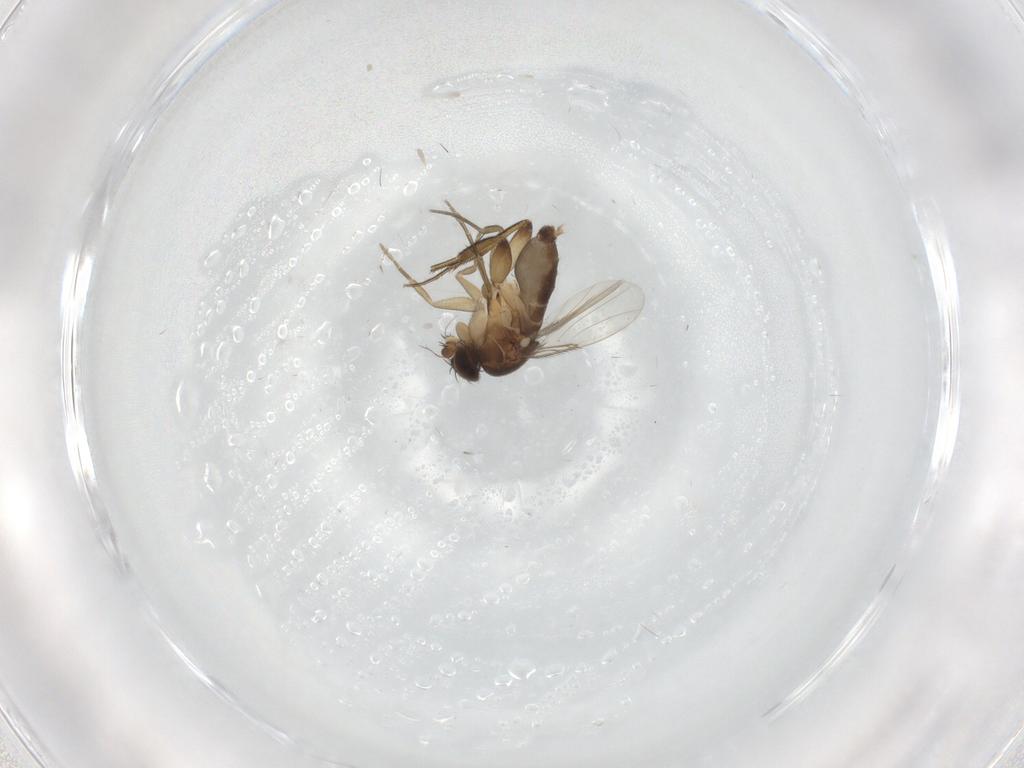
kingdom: Animalia
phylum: Arthropoda
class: Insecta
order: Diptera
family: Phoridae
